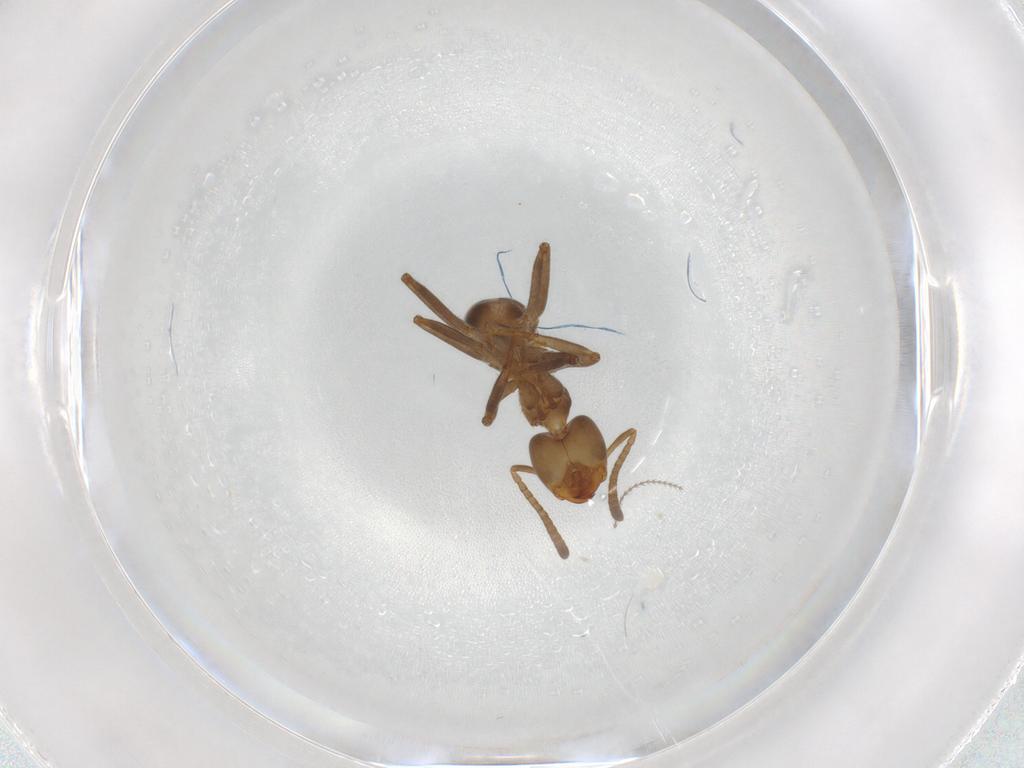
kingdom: Animalia
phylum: Arthropoda
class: Insecta
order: Hymenoptera
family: Formicidae
